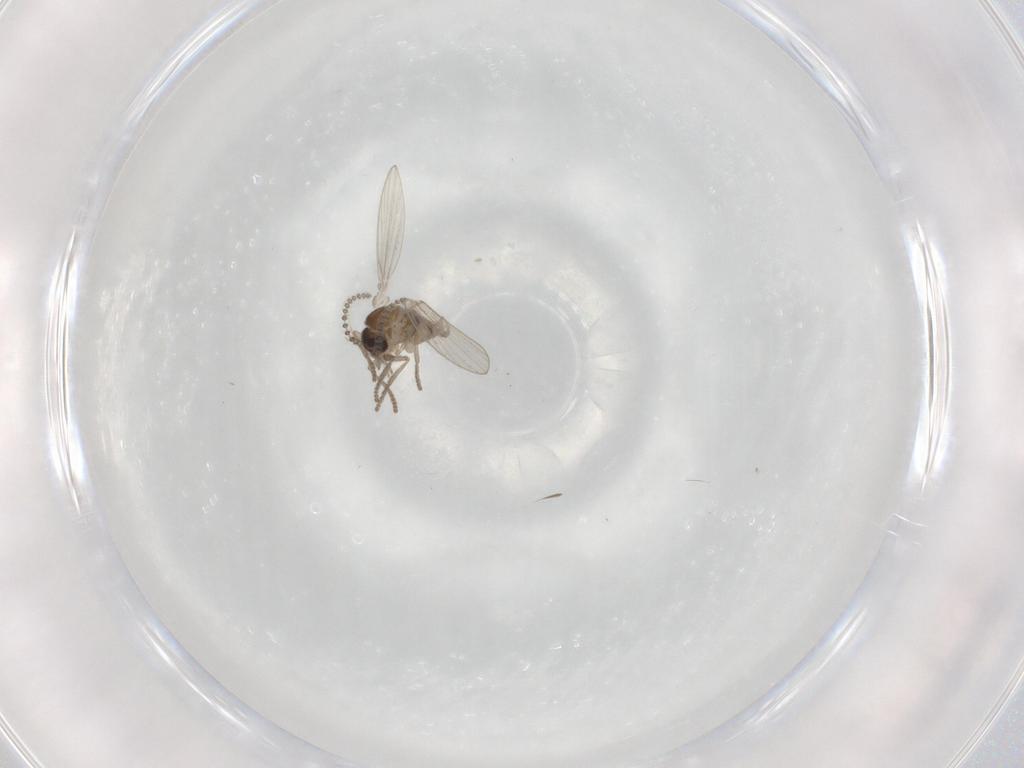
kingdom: Animalia
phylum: Arthropoda
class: Insecta
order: Diptera
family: Psychodidae
